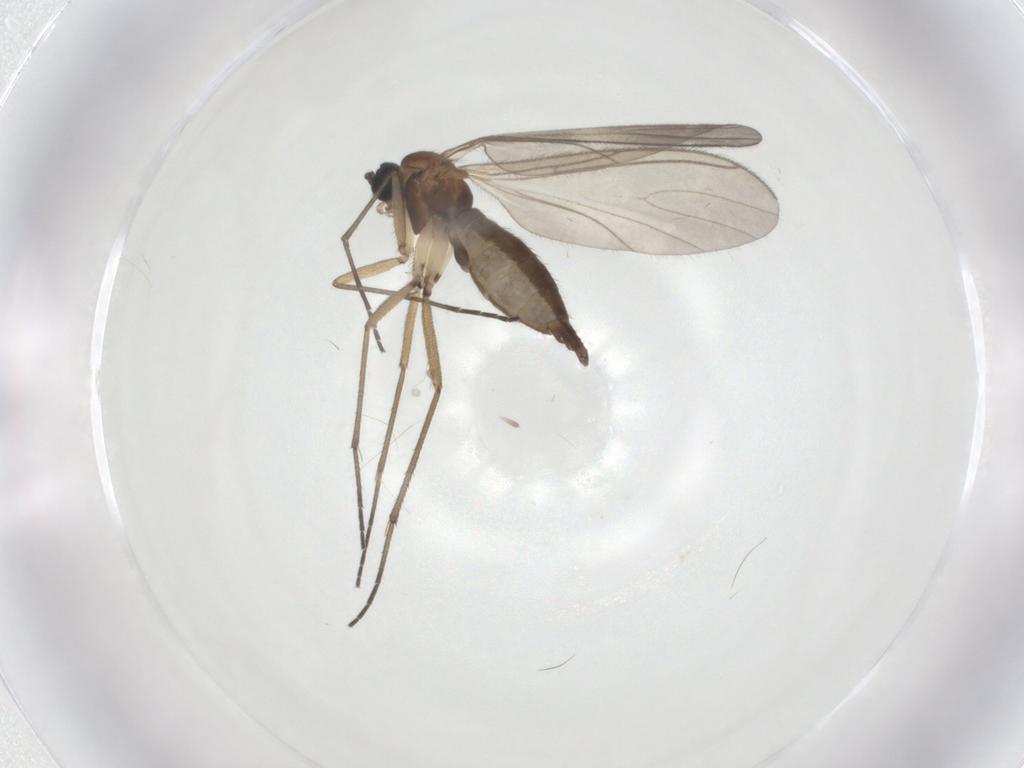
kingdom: Animalia
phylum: Arthropoda
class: Insecta
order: Diptera
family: Sciaridae
